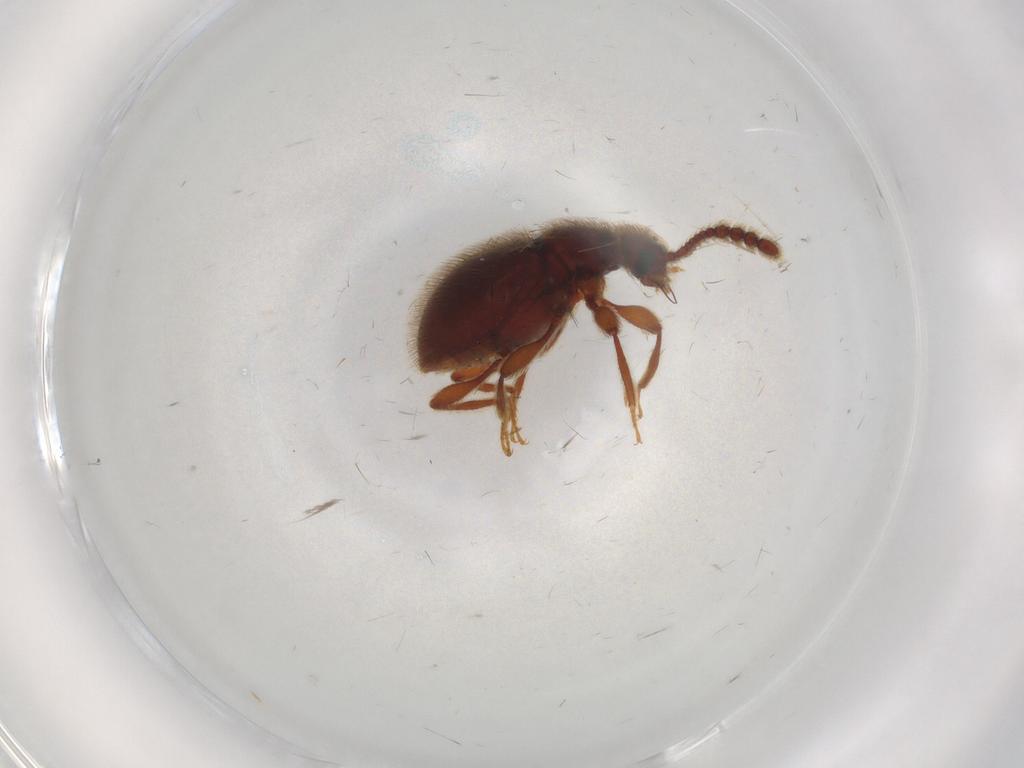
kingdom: Animalia
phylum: Arthropoda
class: Insecta
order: Coleoptera
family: Staphylinidae
